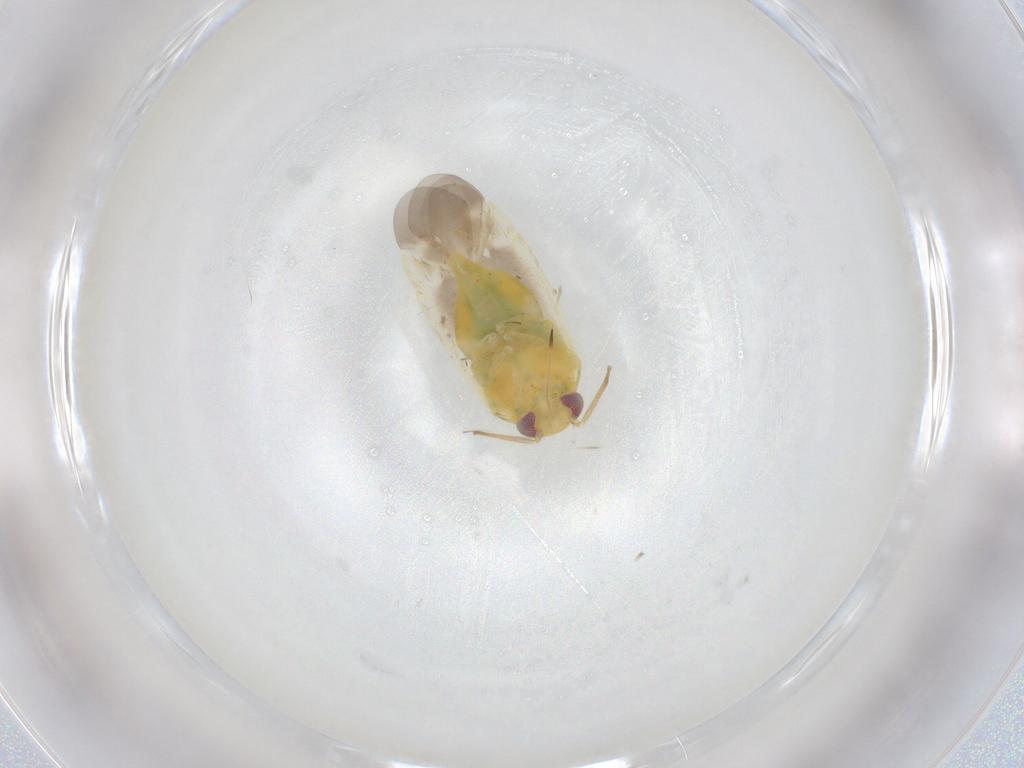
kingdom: Animalia
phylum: Arthropoda
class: Insecta
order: Hemiptera
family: Miridae
